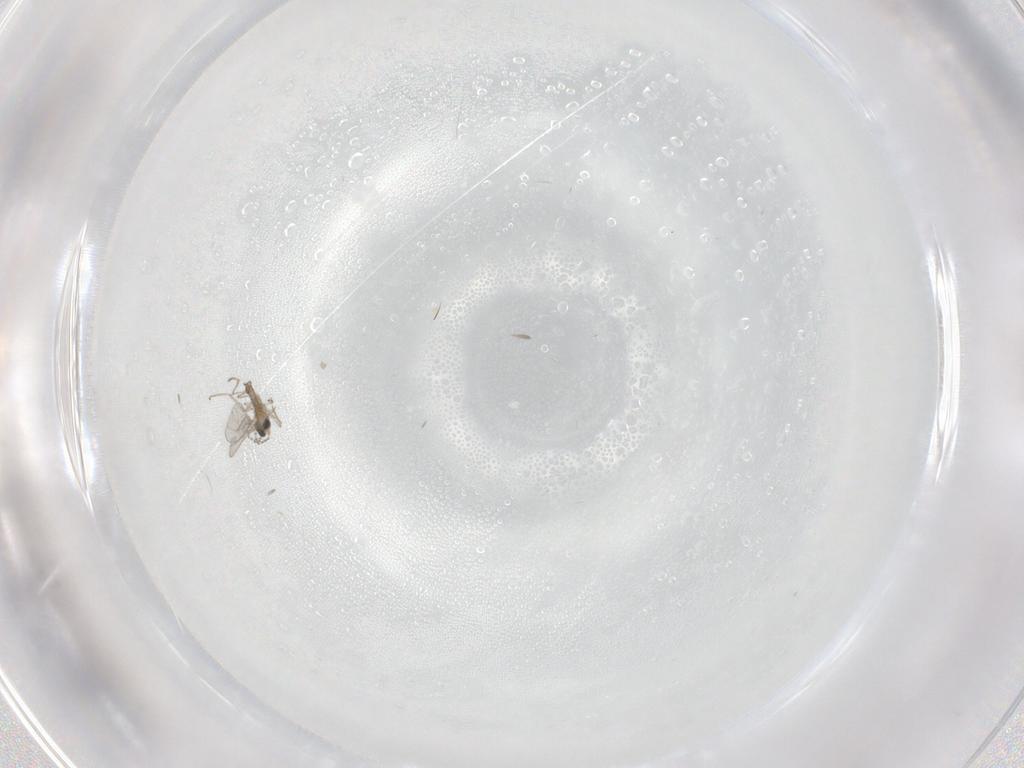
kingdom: Animalia
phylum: Arthropoda
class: Insecta
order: Diptera
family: Cecidomyiidae
